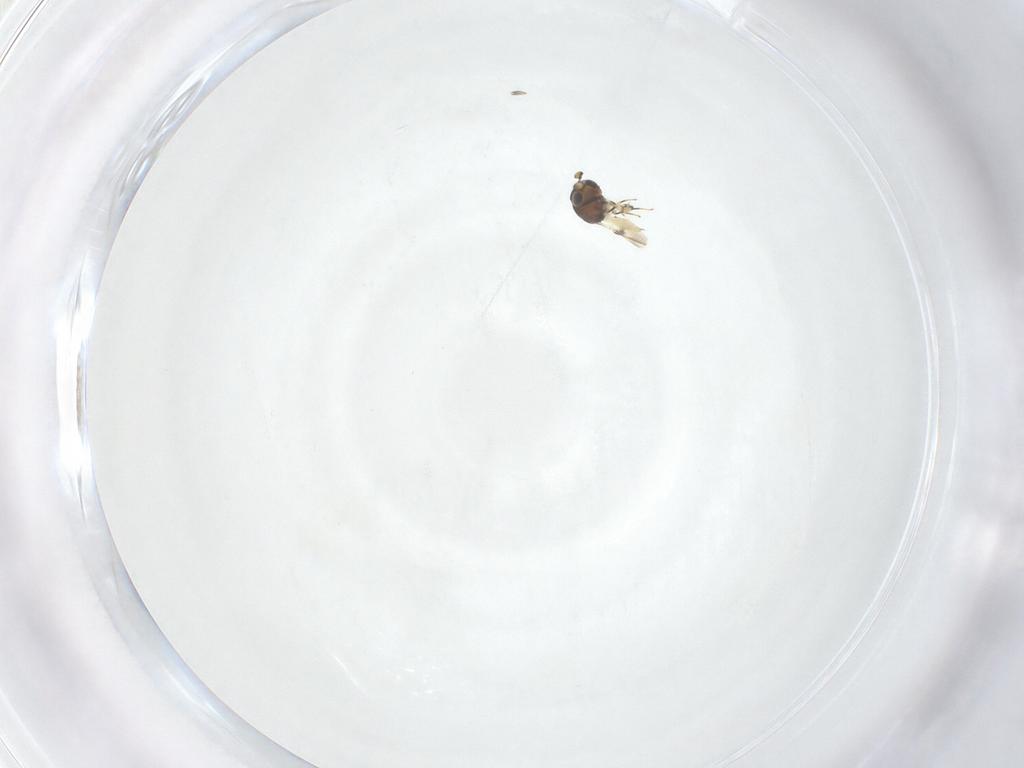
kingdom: Animalia
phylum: Arthropoda
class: Insecta
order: Hymenoptera
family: Scelionidae
